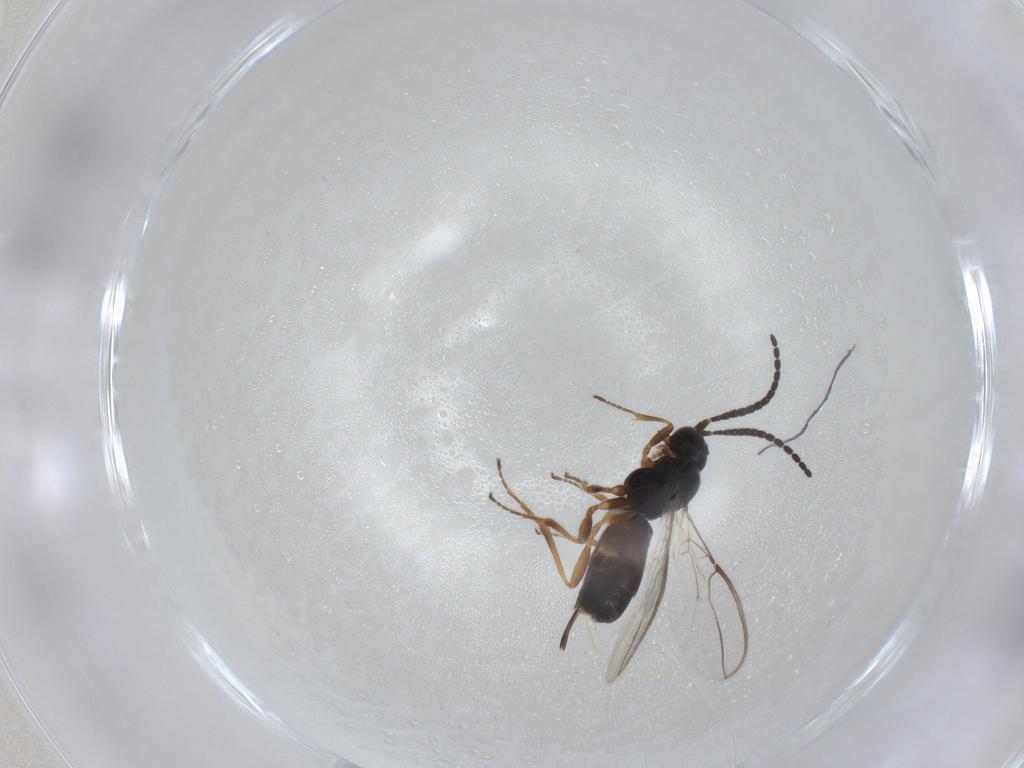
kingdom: Animalia
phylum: Arthropoda
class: Insecta
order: Hymenoptera
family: Braconidae
